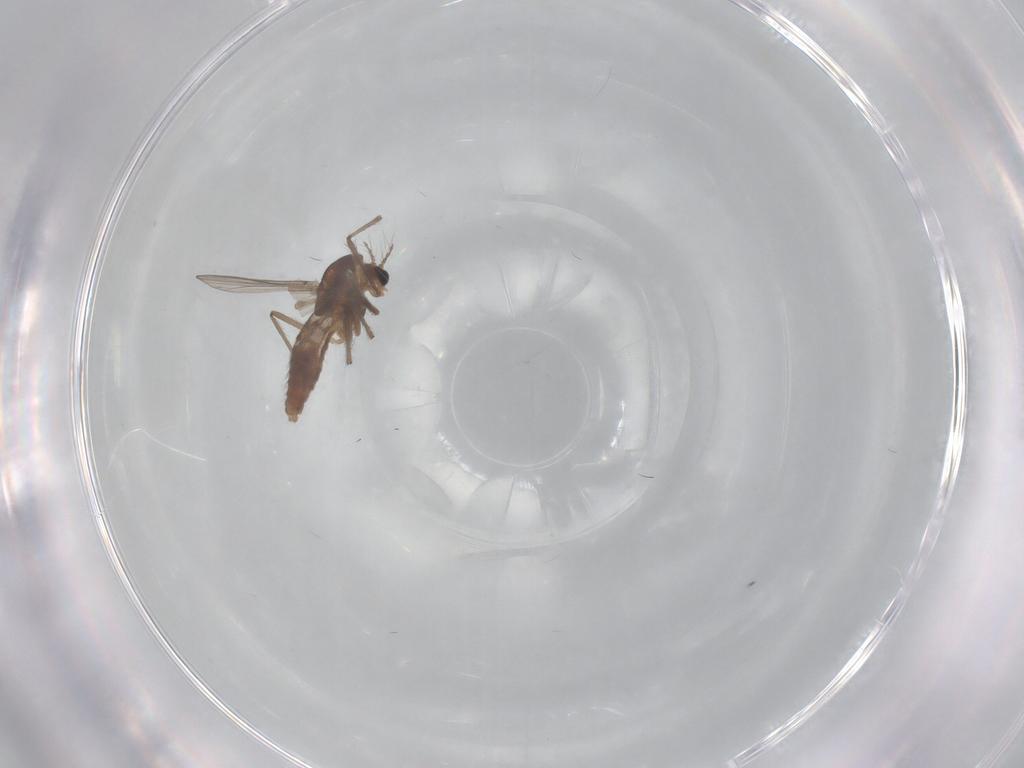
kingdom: Animalia
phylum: Arthropoda
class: Insecta
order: Diptera
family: Chironomidae
